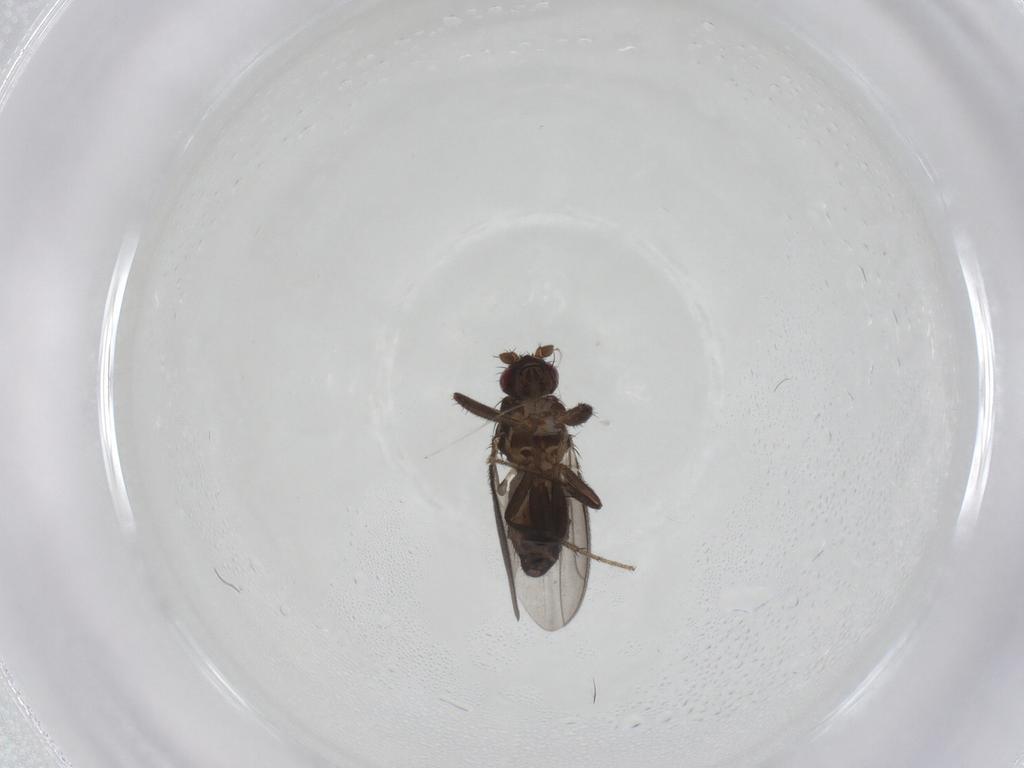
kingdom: Animalia
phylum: Arthropoda
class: Insecta
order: Diptera
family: Sphaeroceridae
